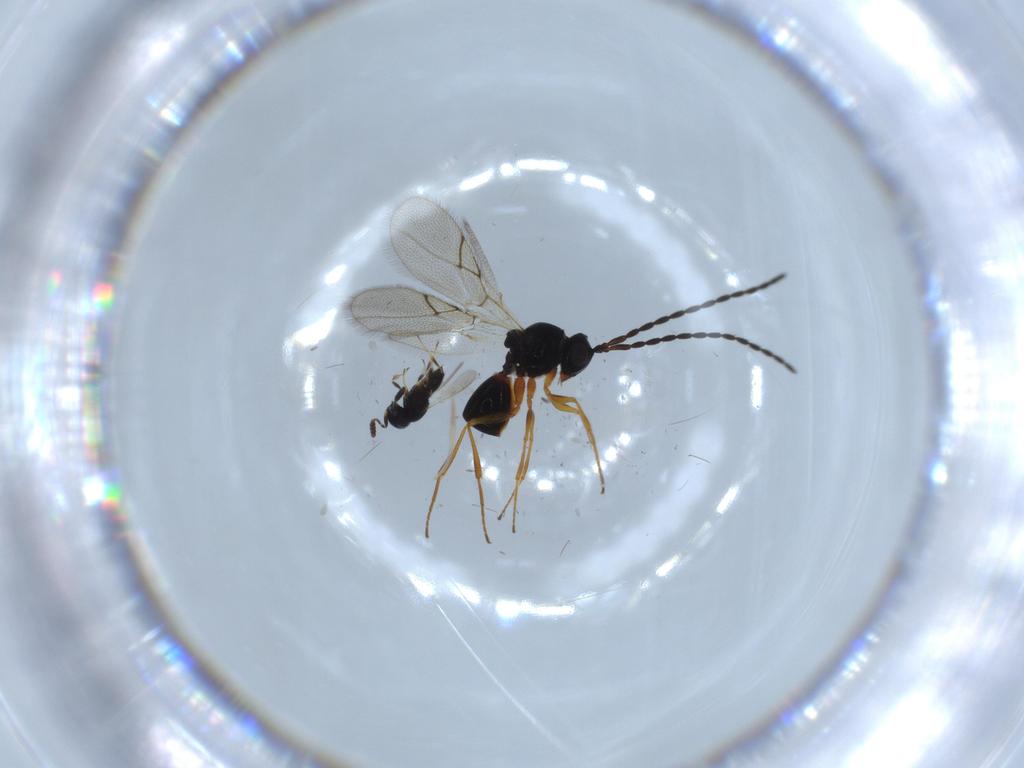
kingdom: Animalia
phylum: Arthropoda
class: Insecta
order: Hymenoptera
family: Figitidae
